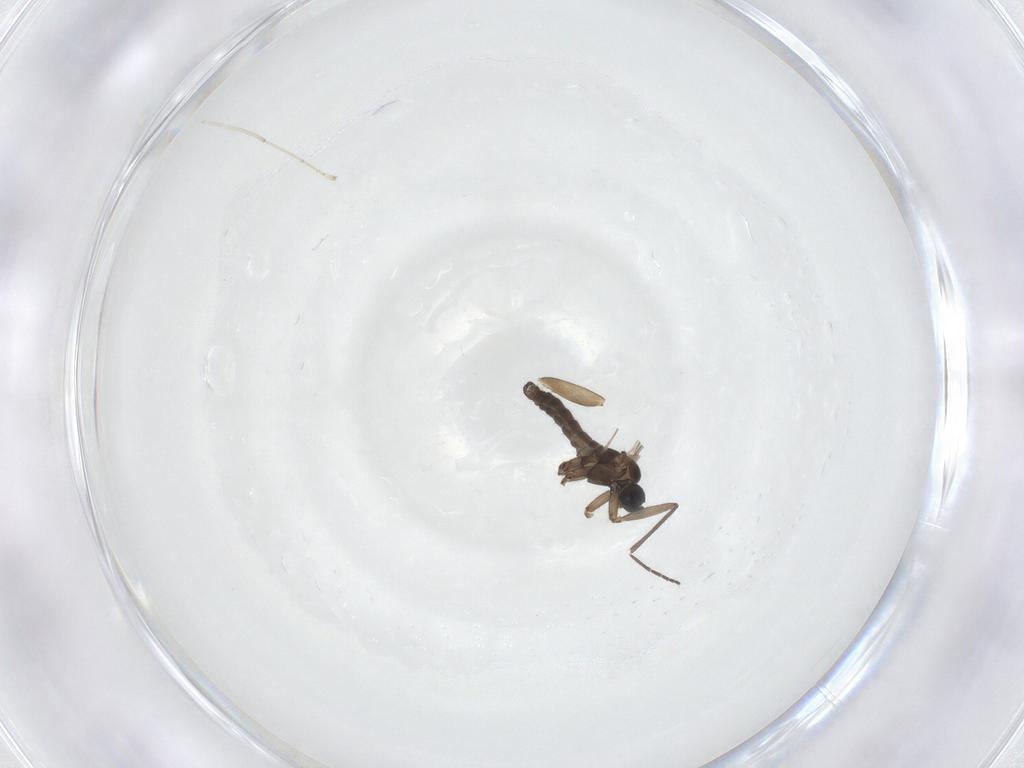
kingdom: Animalia
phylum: Arthropoda
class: Insecta
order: Diptera
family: Sciaridae
